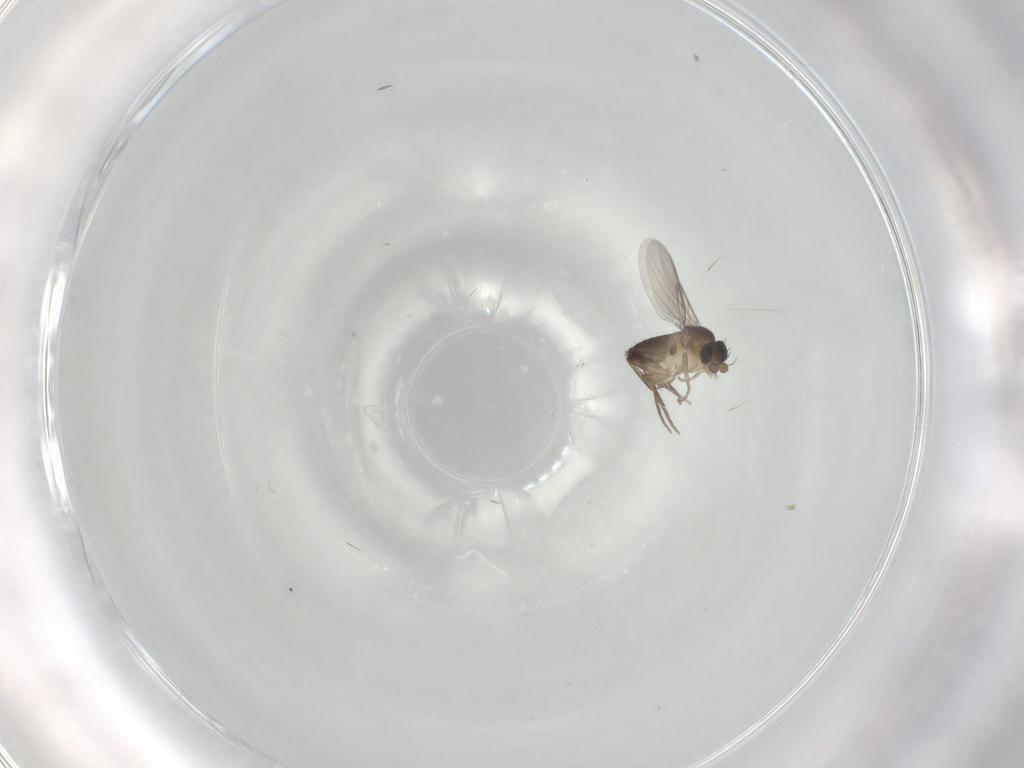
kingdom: Animalia
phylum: Arthropoda
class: Insecta
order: Diptera
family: Phoridae
